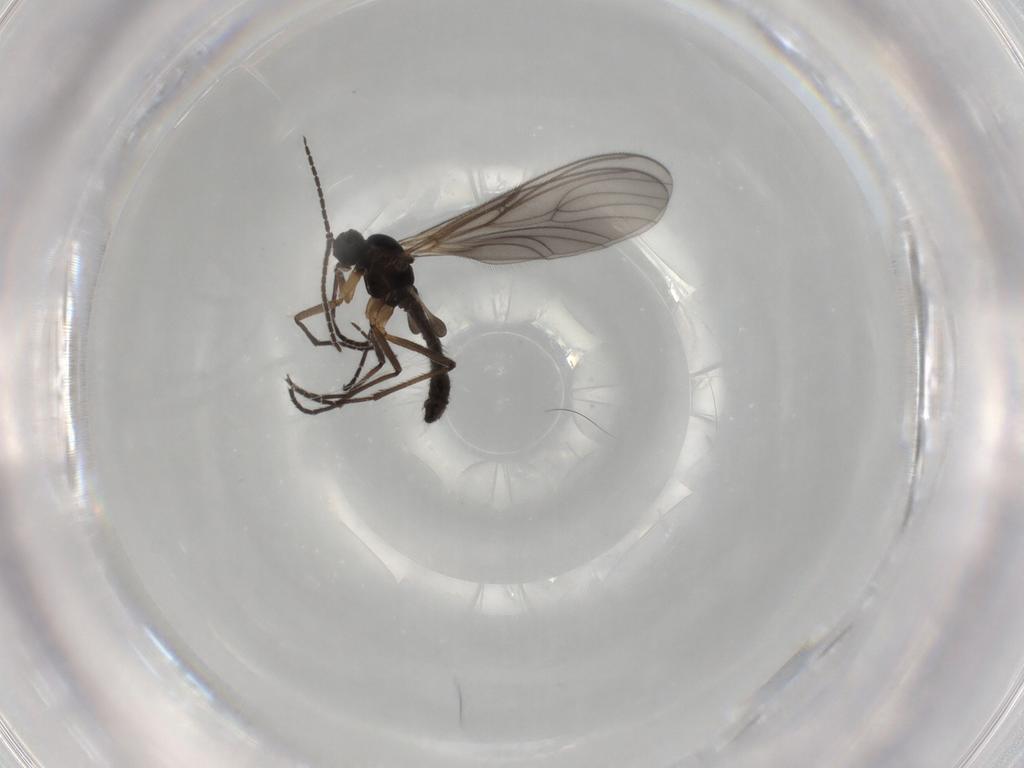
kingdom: Animalia
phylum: Arthropoda
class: Insecta
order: Diptera
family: Sciaridae
